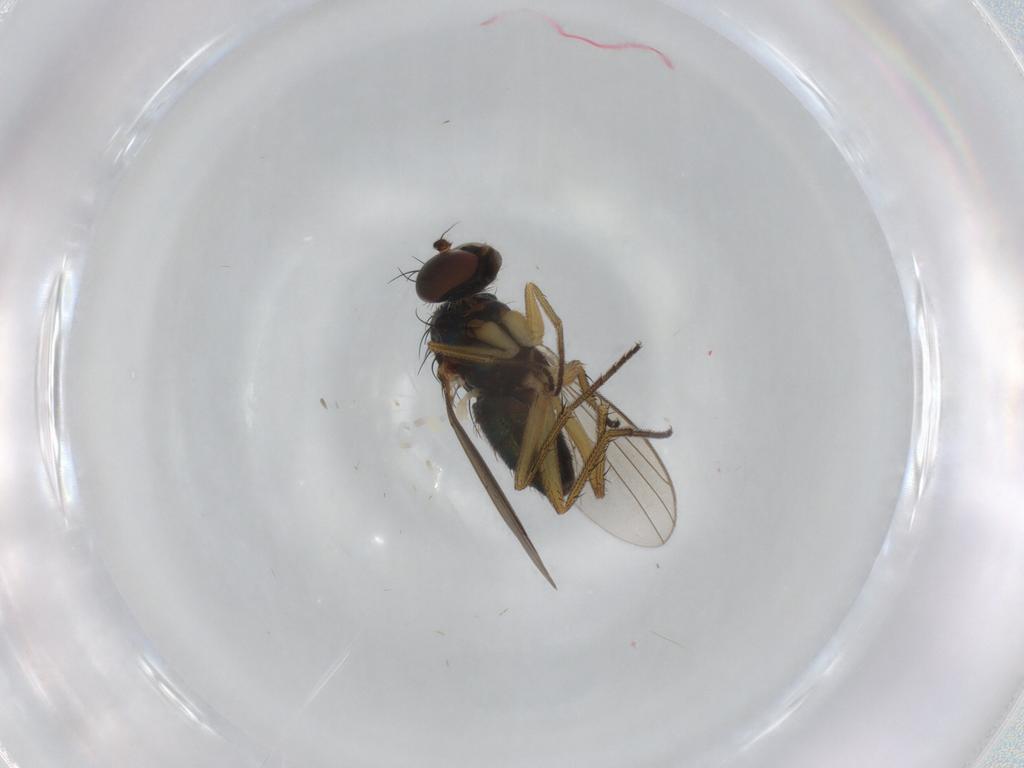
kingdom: Animalia
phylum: Arthropoda
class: Insecta
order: Diptera
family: Dolichopodidae
